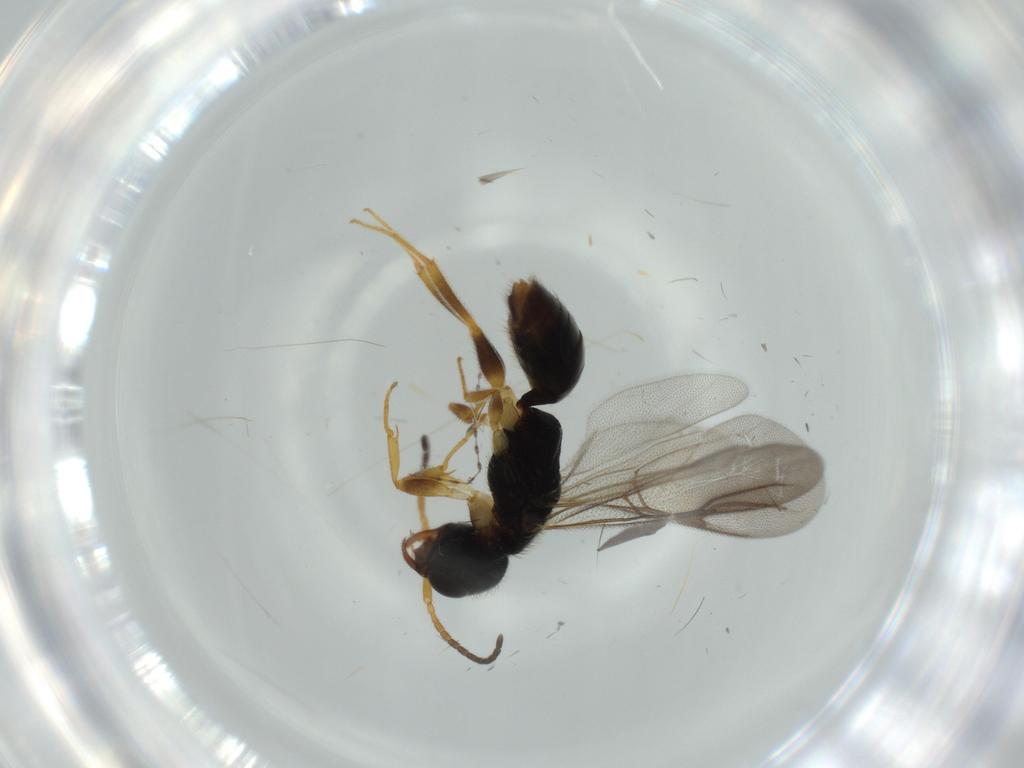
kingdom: Animalia
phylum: Arthropoda
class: Insecta
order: Hymenoptera
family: Bethylidae
